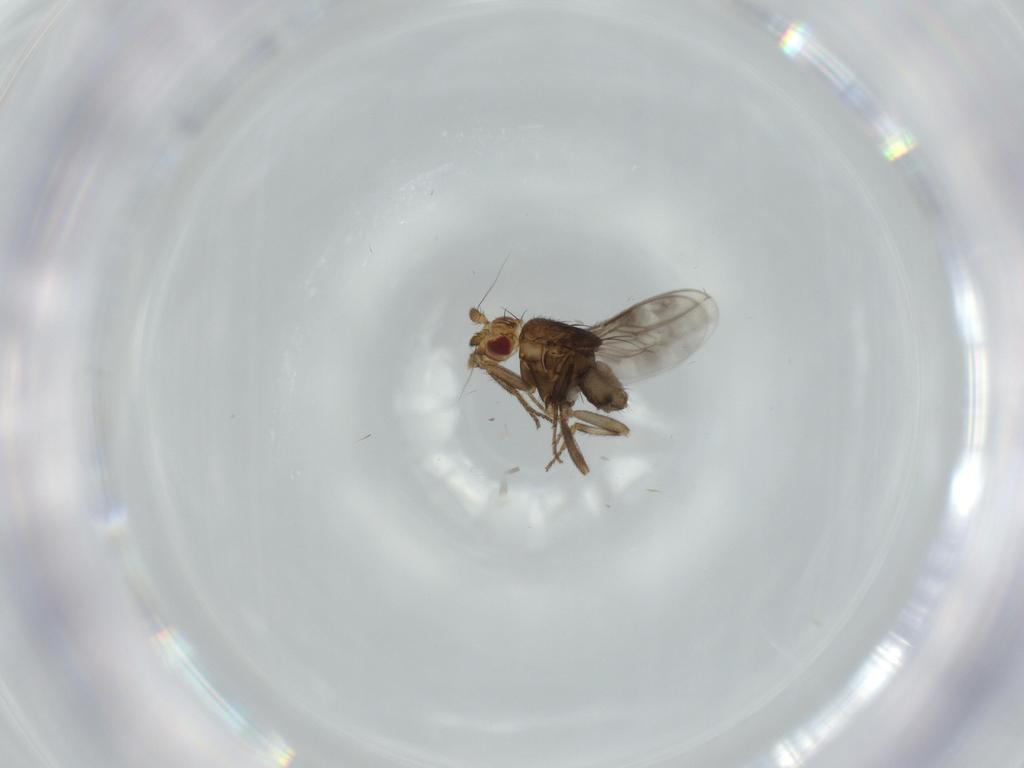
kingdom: Animalia
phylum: Arthropoda
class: Insecta
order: Diptera
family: Sphaeroceridae
